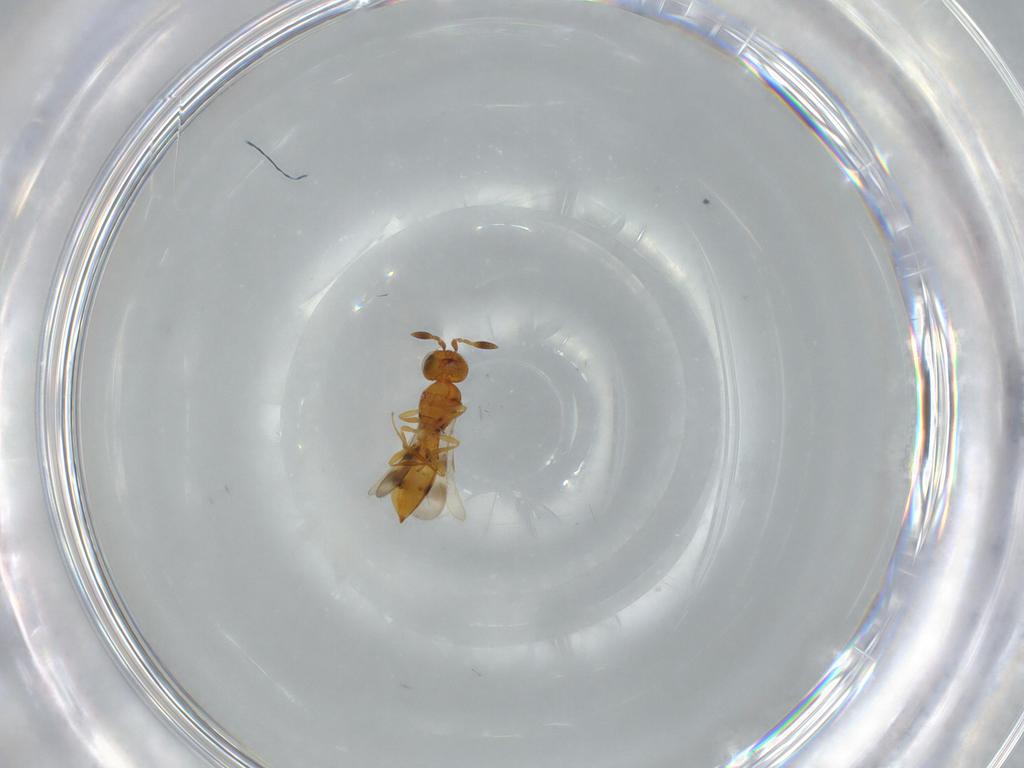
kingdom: Animalia
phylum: Arthropoda
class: Insecta
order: Hymenoptera
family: Scelionidae
